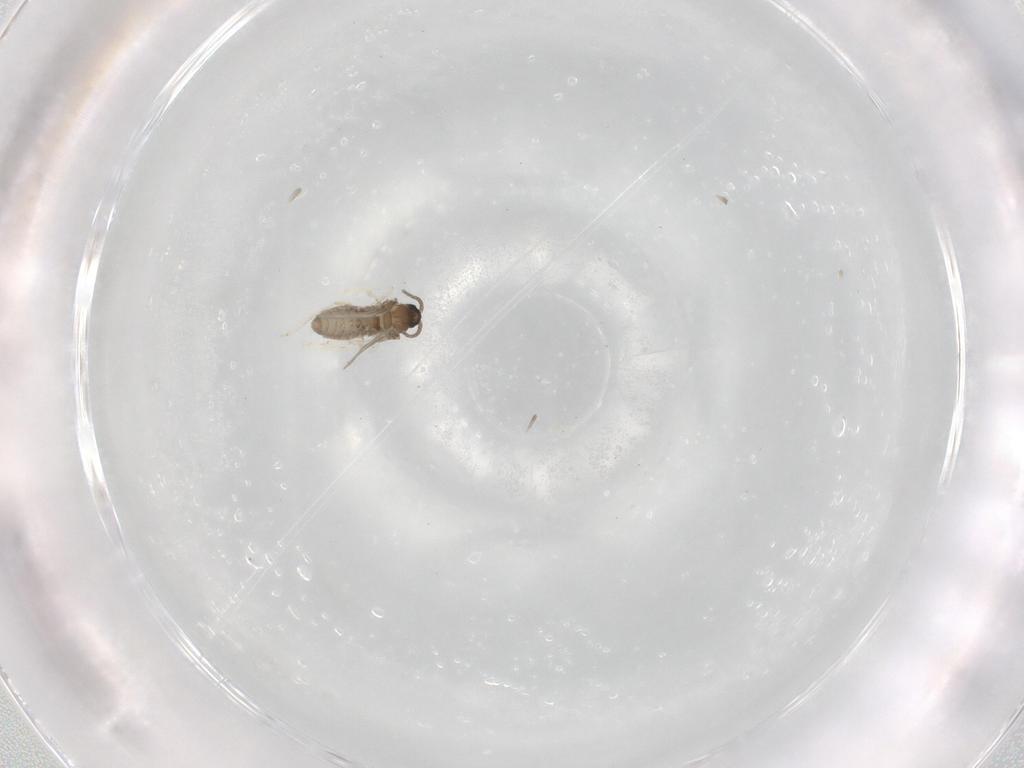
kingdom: Animalia
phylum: Arthropoda
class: Insecta
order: Diptera
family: Cecidomyiidae
